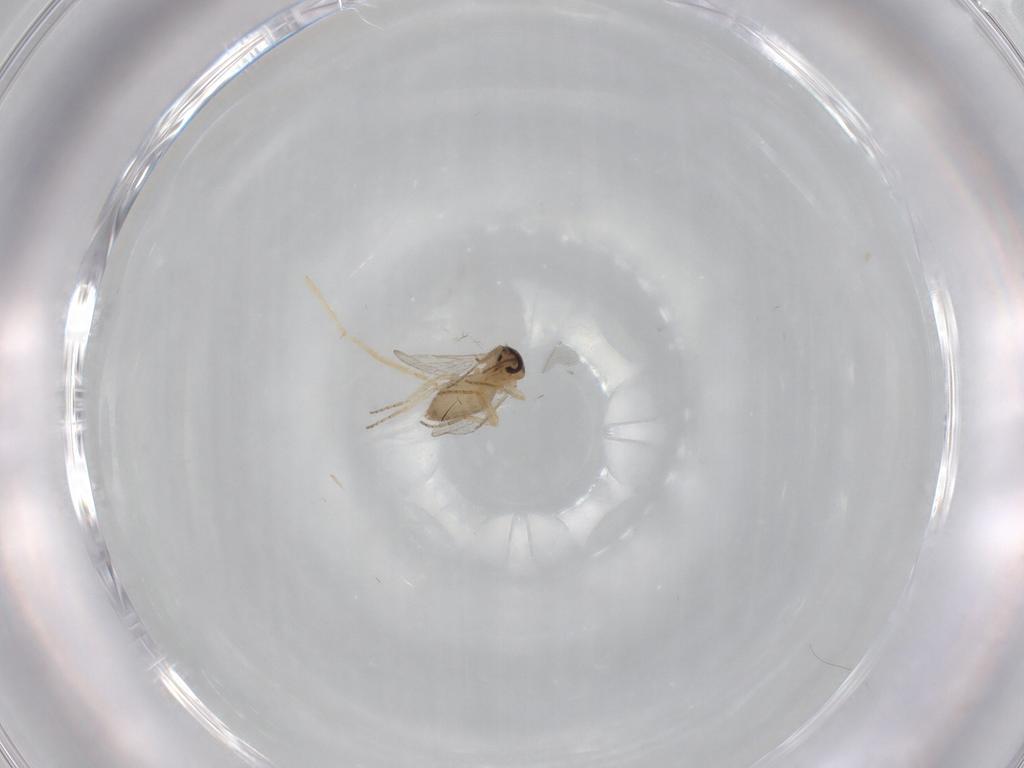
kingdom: Animalia
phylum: Arthropoda
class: Insecta
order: Diptera
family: Ceratopogonidae
